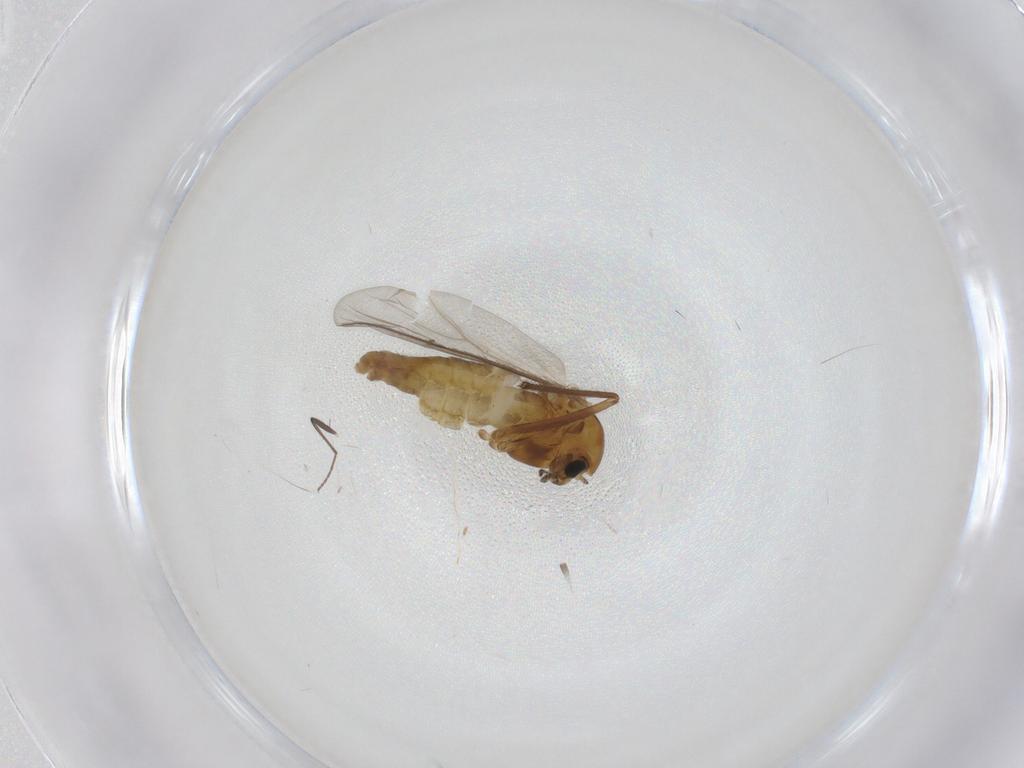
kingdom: Animalia
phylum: Arthropoda
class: Insecta
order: Diptera
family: Chironomidae
